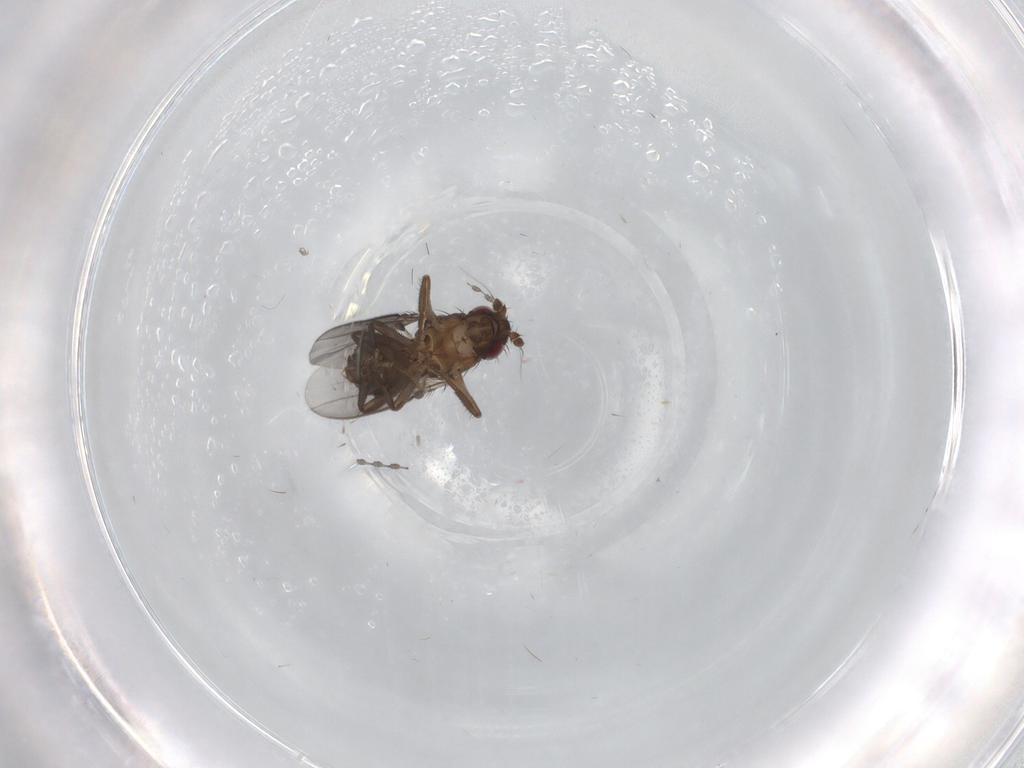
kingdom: Animalia
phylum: Arthropoda
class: Insecta
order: Diptera
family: Sphaeroceridae
